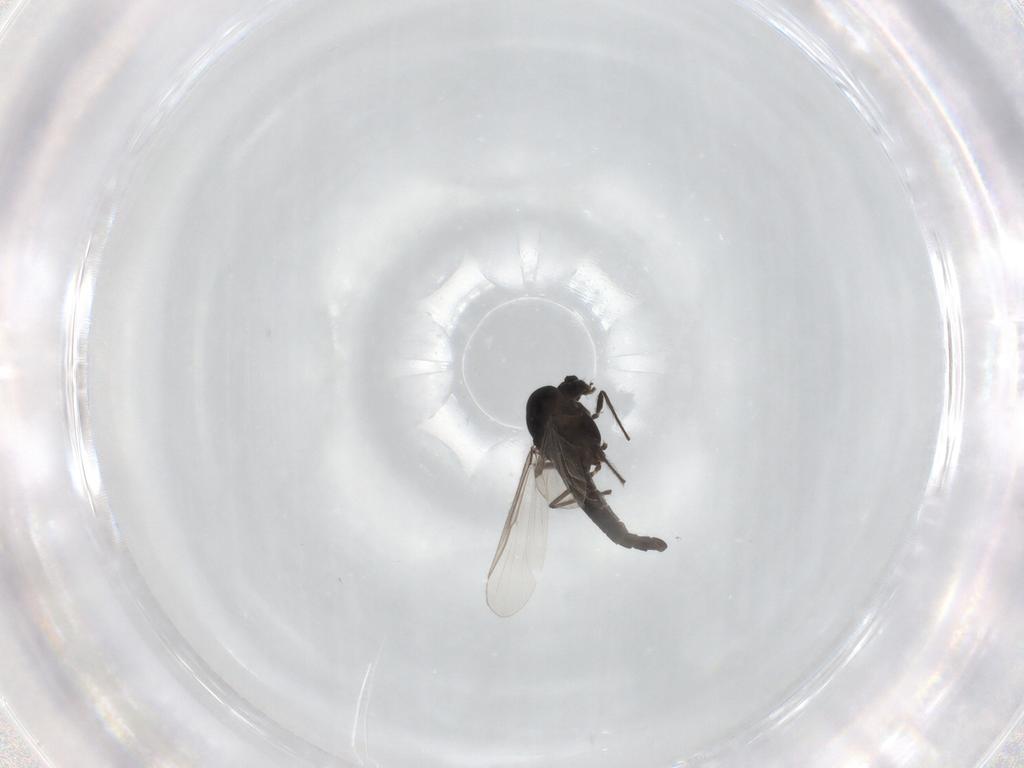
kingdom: Animalia
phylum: Arthropoda
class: Insecta
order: Diptera
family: Chironomidae
